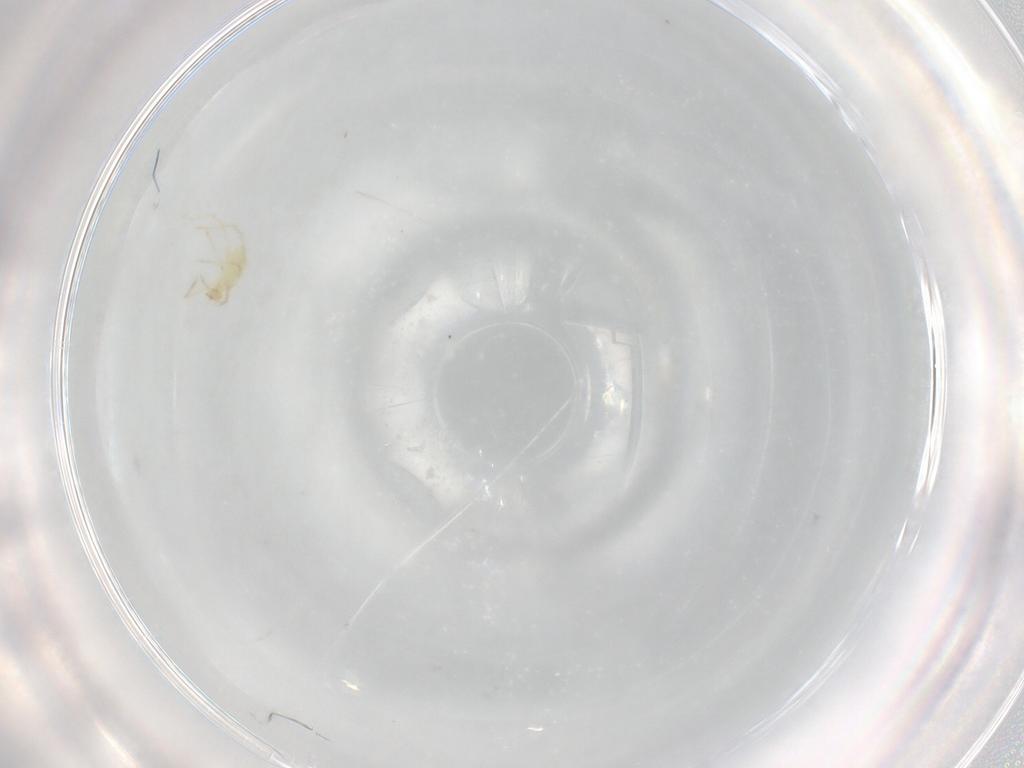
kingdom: Animalia
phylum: Arthropoda
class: Arachnida
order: Trombidiformes
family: Erythraeidae
